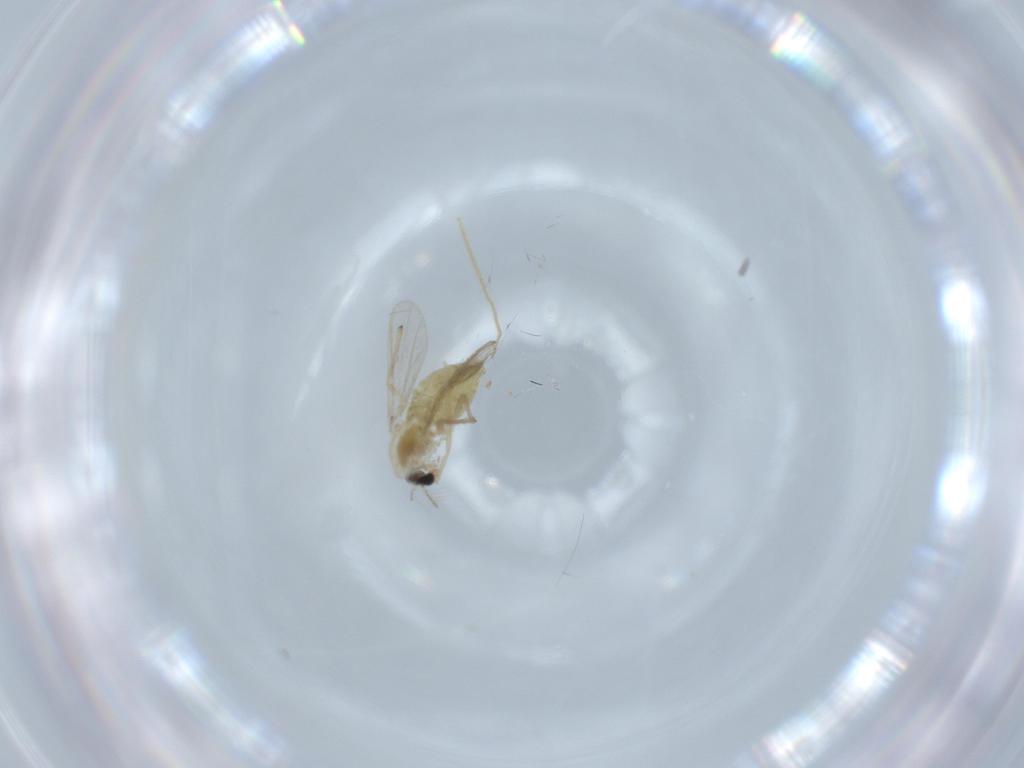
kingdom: Animalia
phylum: Arthropoda
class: Insecta
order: Diptera
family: Chironomidae
